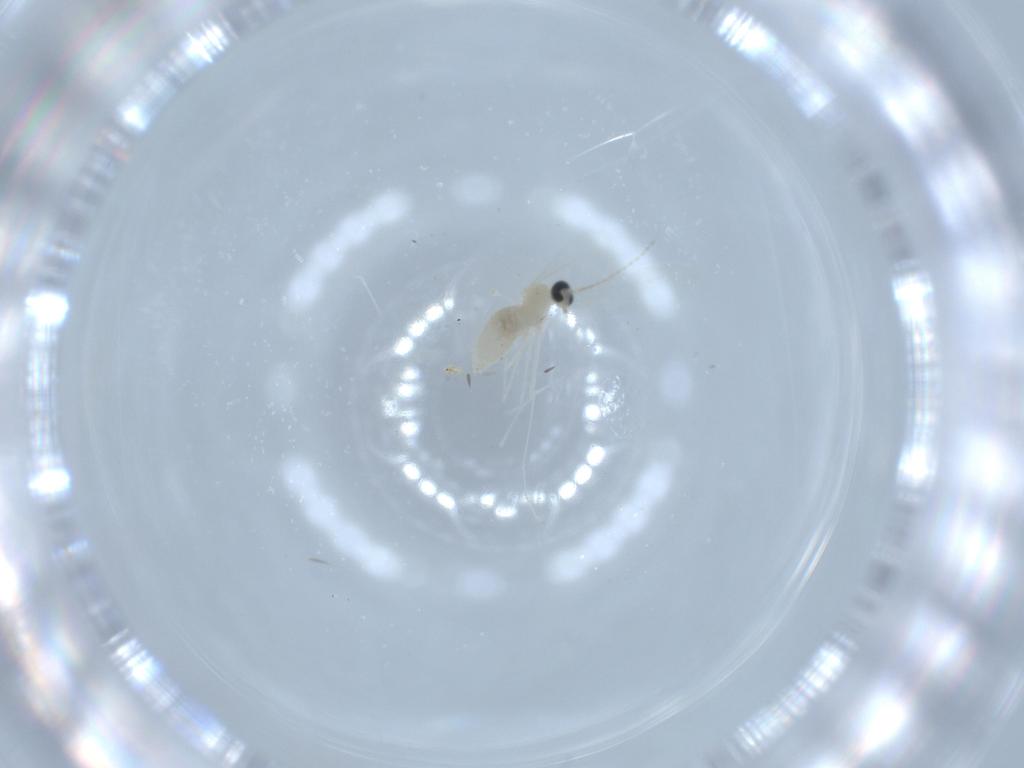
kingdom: Animalia
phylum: Arthropoda
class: Insecta
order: Diptera
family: Cecidomyiidae
